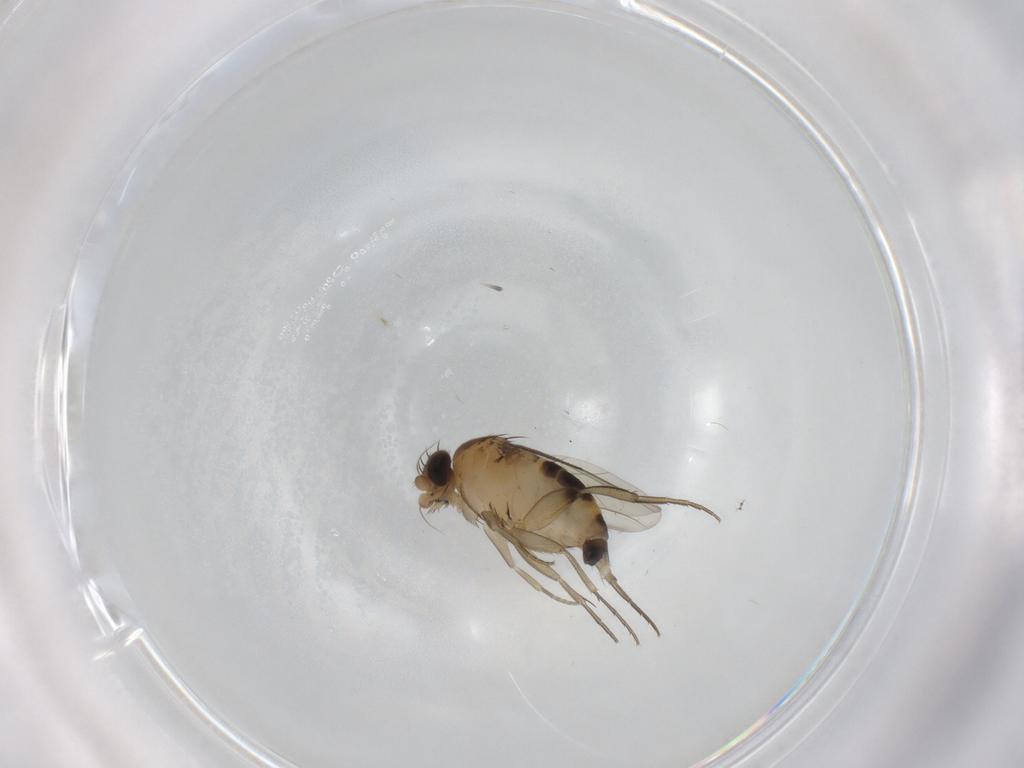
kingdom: Animalia
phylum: Arthropoda
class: Insecta
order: Diptera
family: Phoridae
